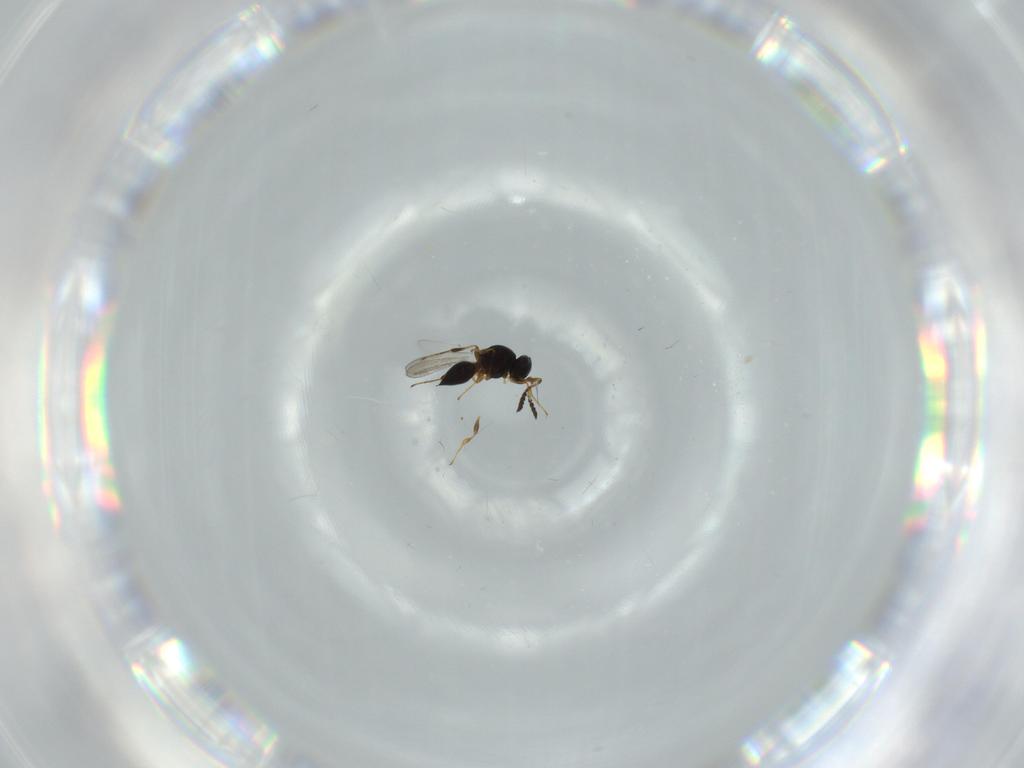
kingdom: Animalia
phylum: Arthropoda
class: Insecta
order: Hymenoptera
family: Platygastridae
